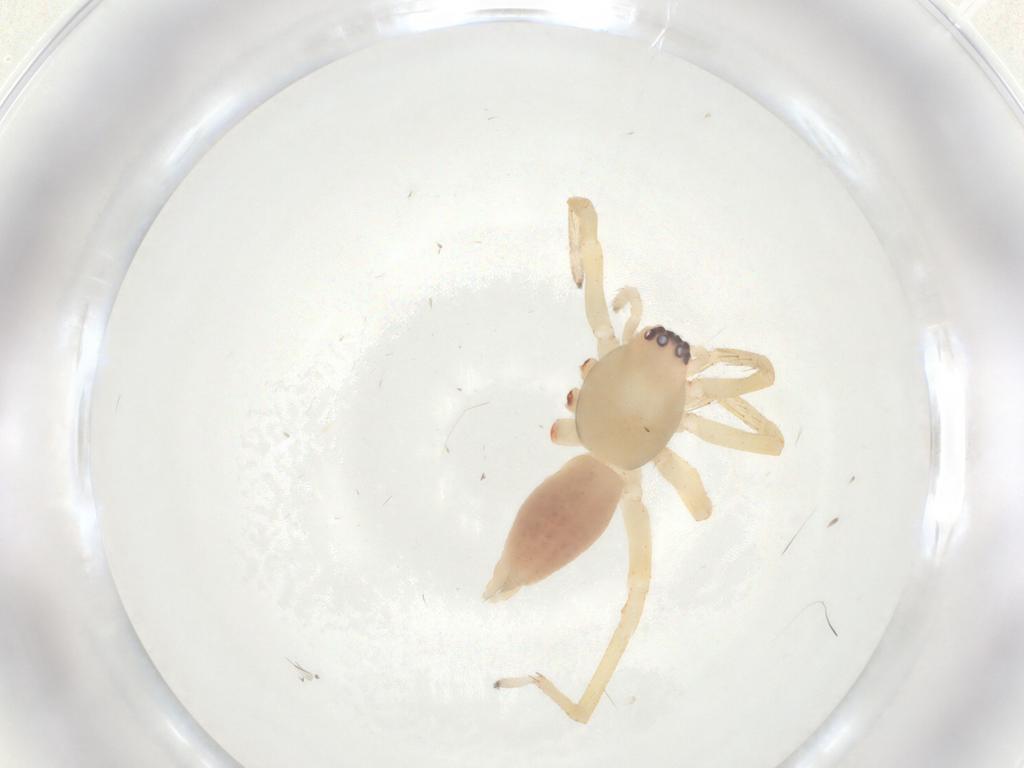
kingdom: Animalia
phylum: Arthropoda
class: Arachnida
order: Araneae
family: Clubionidae
